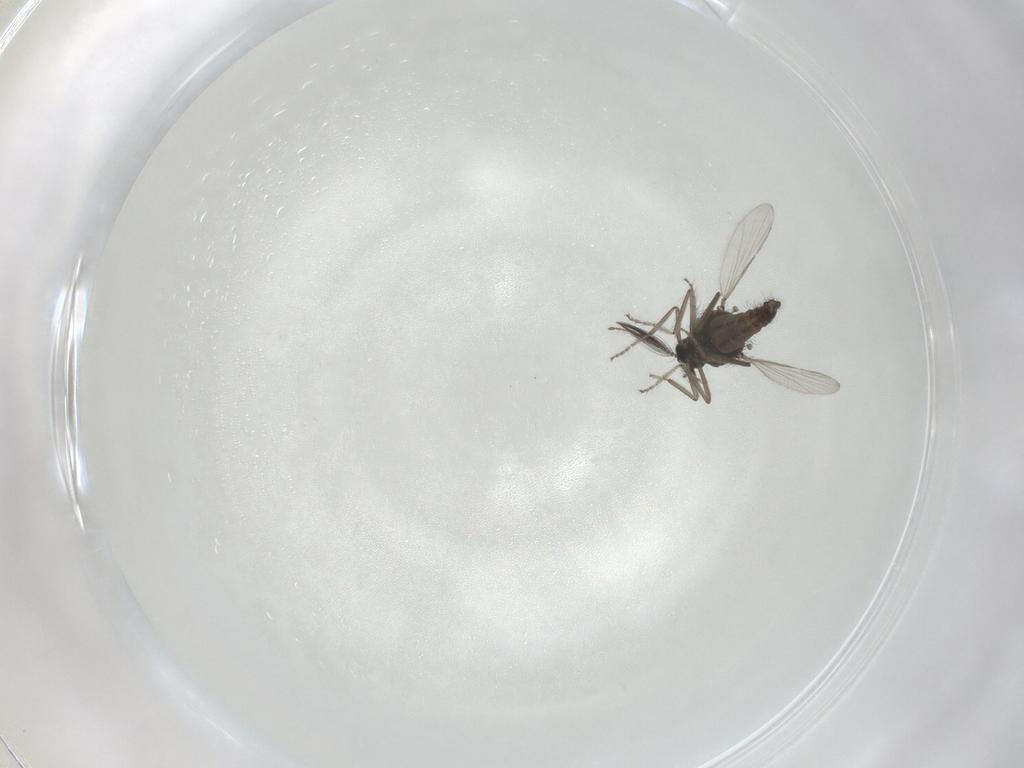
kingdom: Animalia
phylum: Arthropoda
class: Insecta
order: Diptera
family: Ceratopogonidae
